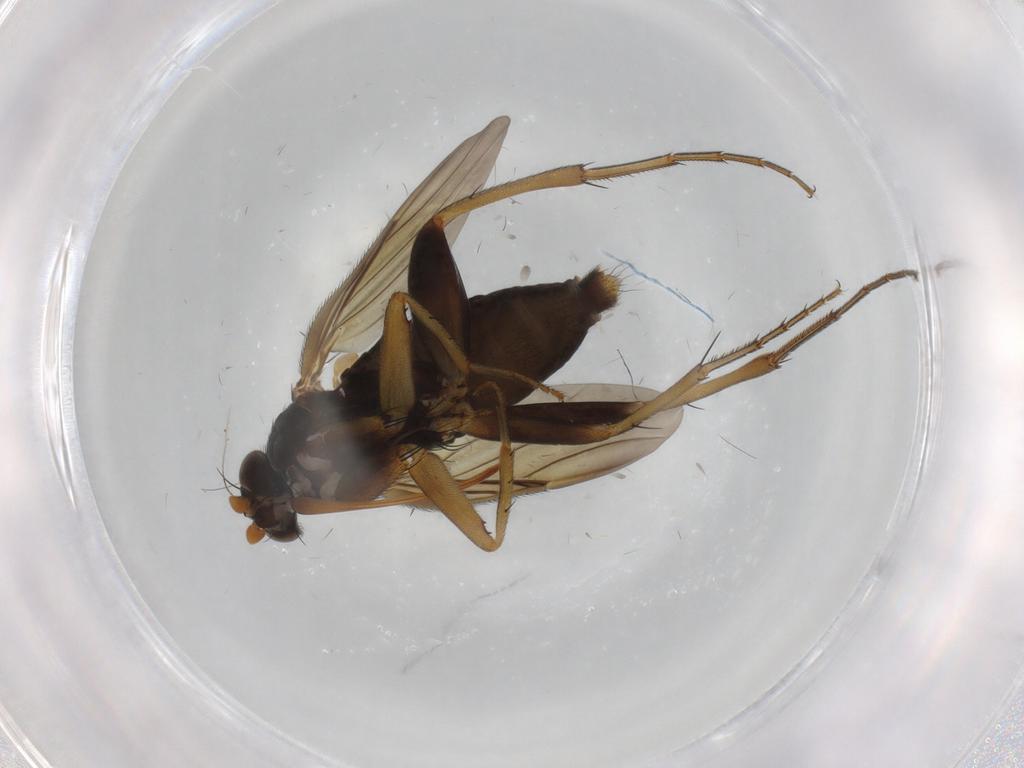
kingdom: Animalia
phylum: Arthropoda
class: Insecta
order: Diptera
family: Phoridae
